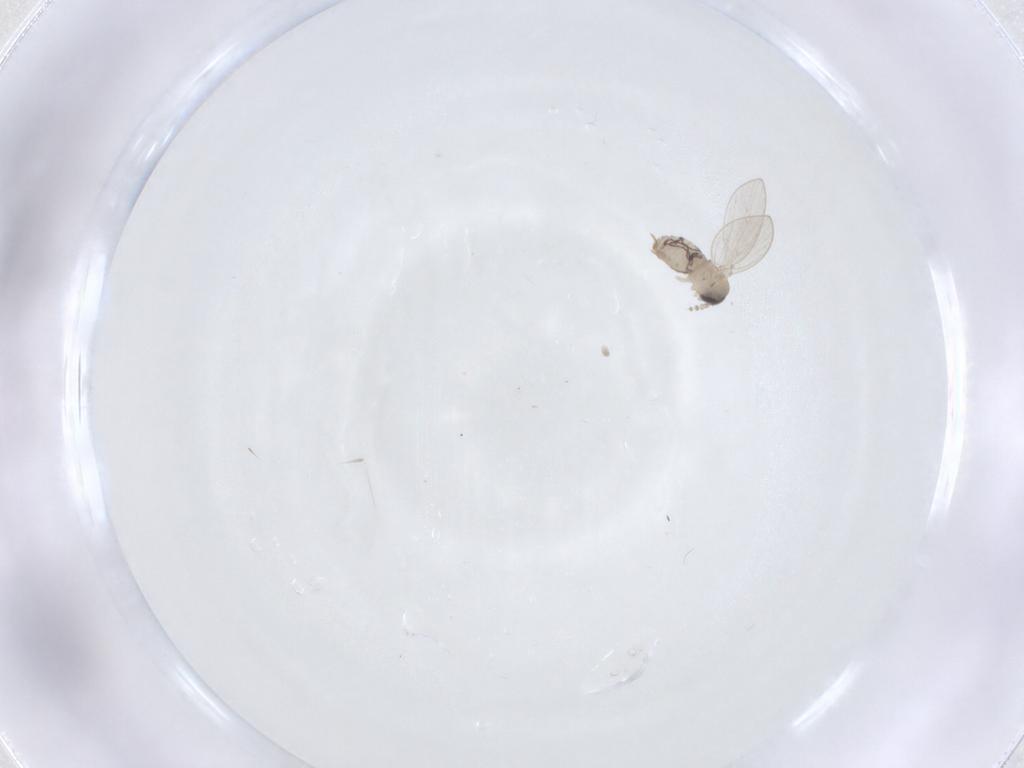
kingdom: Animalia
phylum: Arthropoda
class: Insecta
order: Diptera
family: Psychodidae
